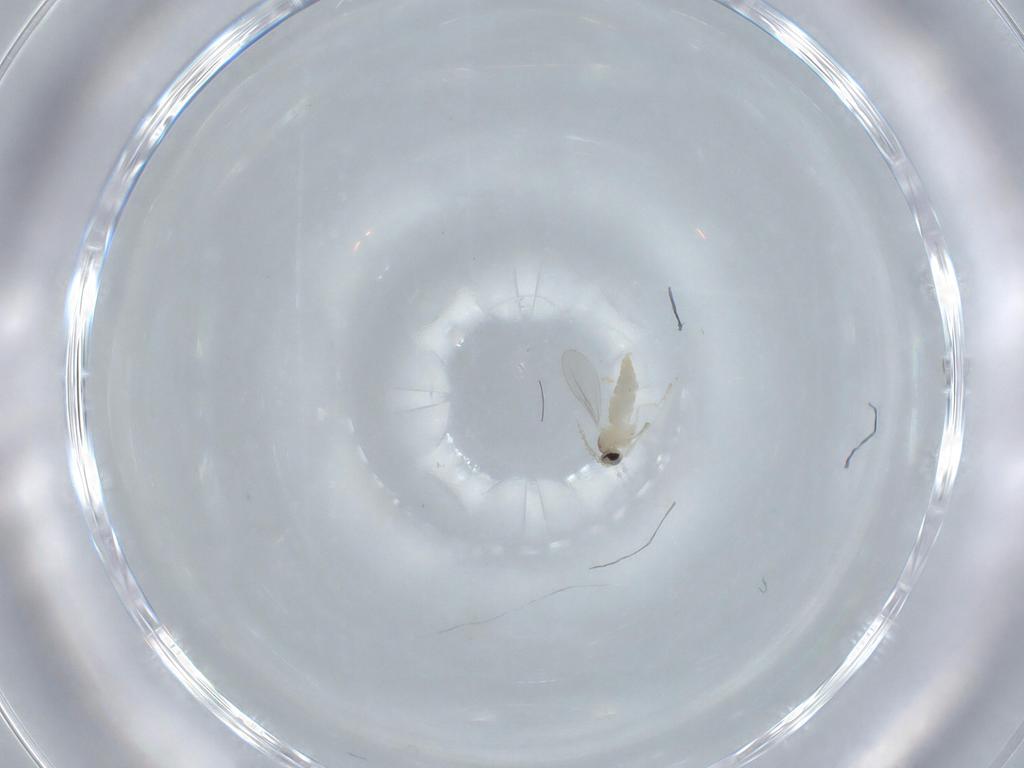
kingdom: Animalia
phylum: Arthropoda
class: Insecta
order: Diptera
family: Cecidomyiidae
